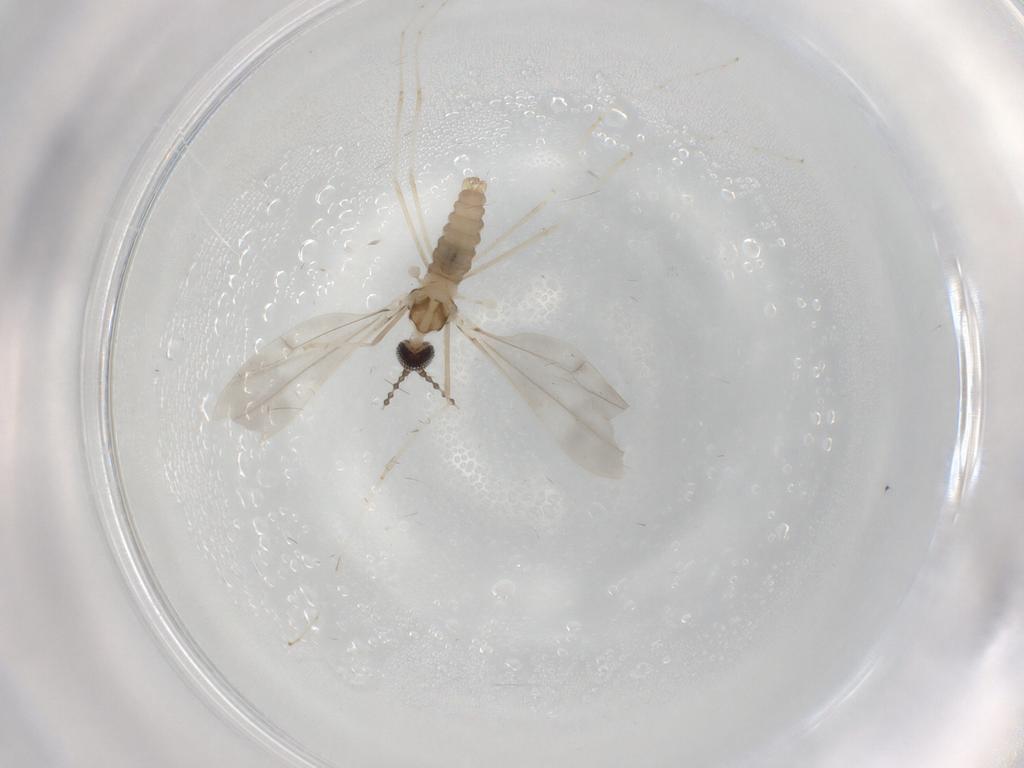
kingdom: Animalia
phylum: Arthropoda
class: Insecta
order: Diptera
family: Cecidomyiidae
